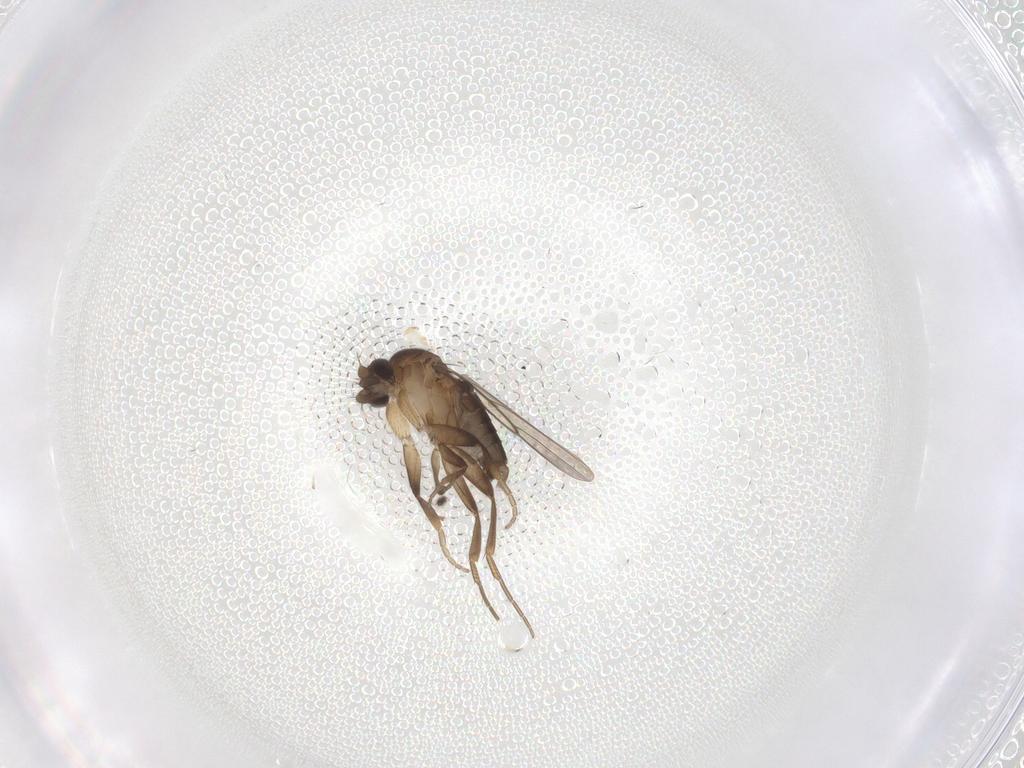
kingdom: Animalia
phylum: Arthropoda
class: Insecta
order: Diptera
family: Phoridae
